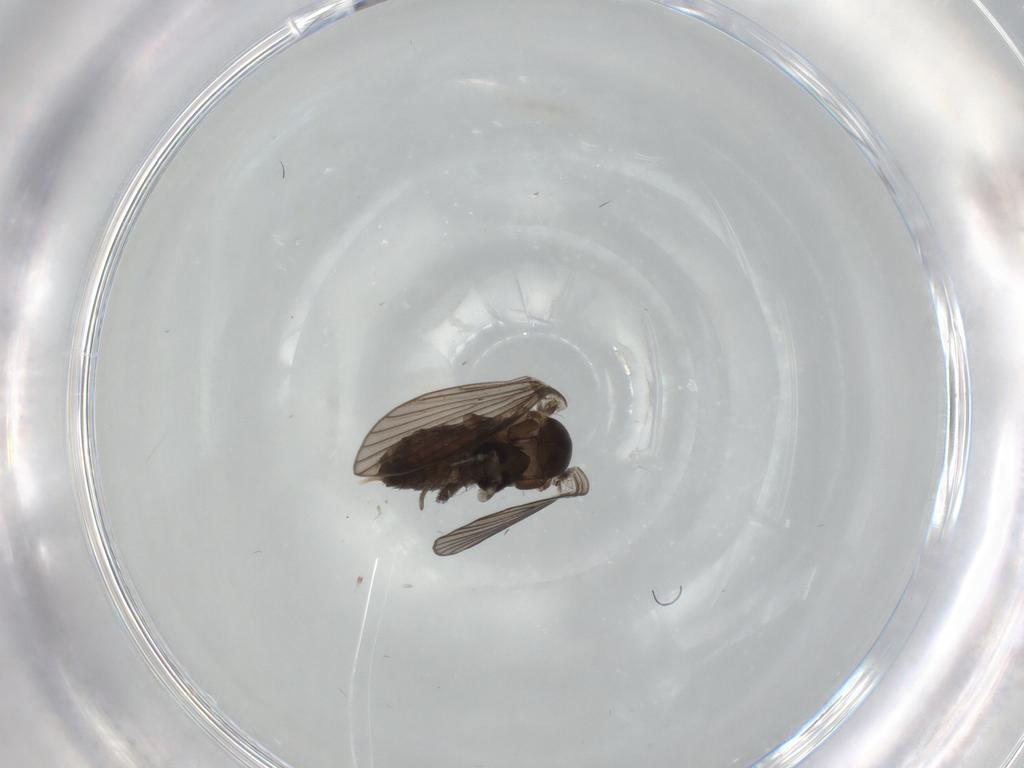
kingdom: Animalia
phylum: Arthropoda
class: Insecta
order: Diptera
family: Psychodidae
